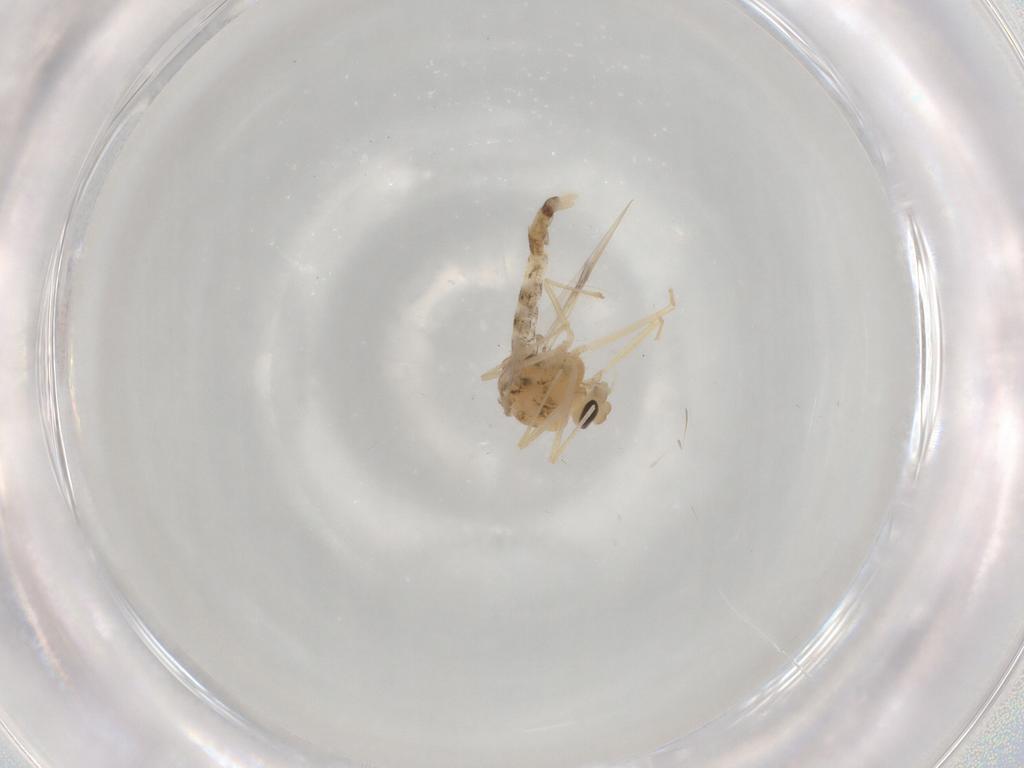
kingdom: Animalia
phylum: Arthropoda
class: Insecta
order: Diptera
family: Chironomidae
